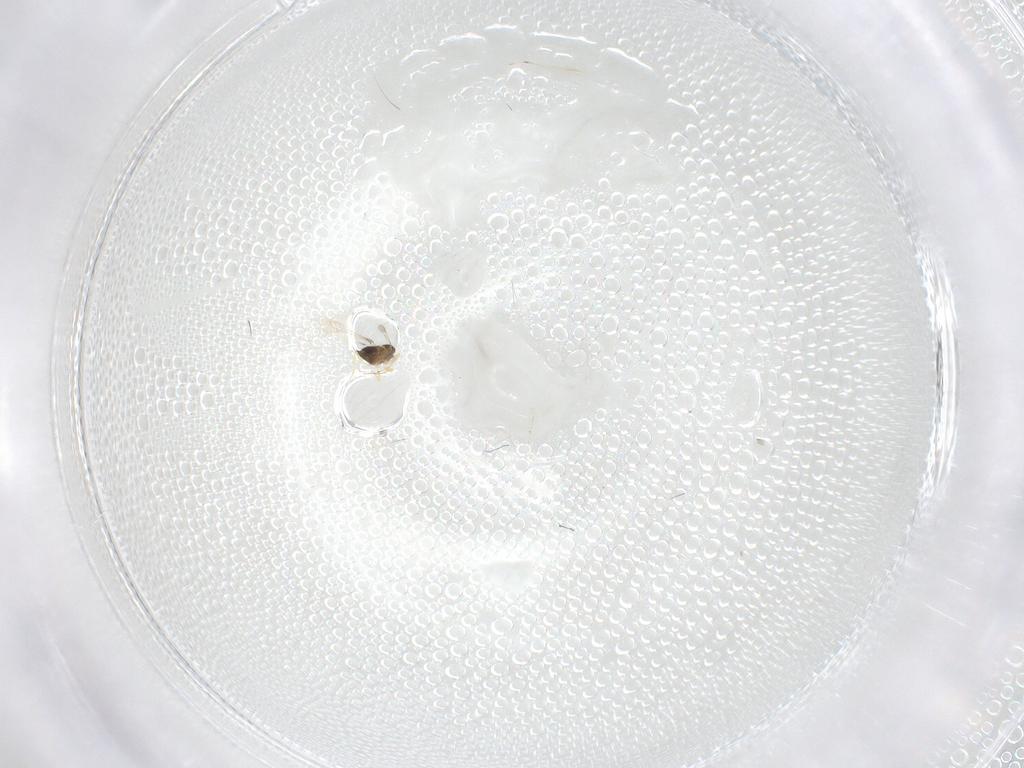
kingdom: Animalia
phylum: Arthropoda
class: Insecta
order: Hymenoptera
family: Mymaridae
